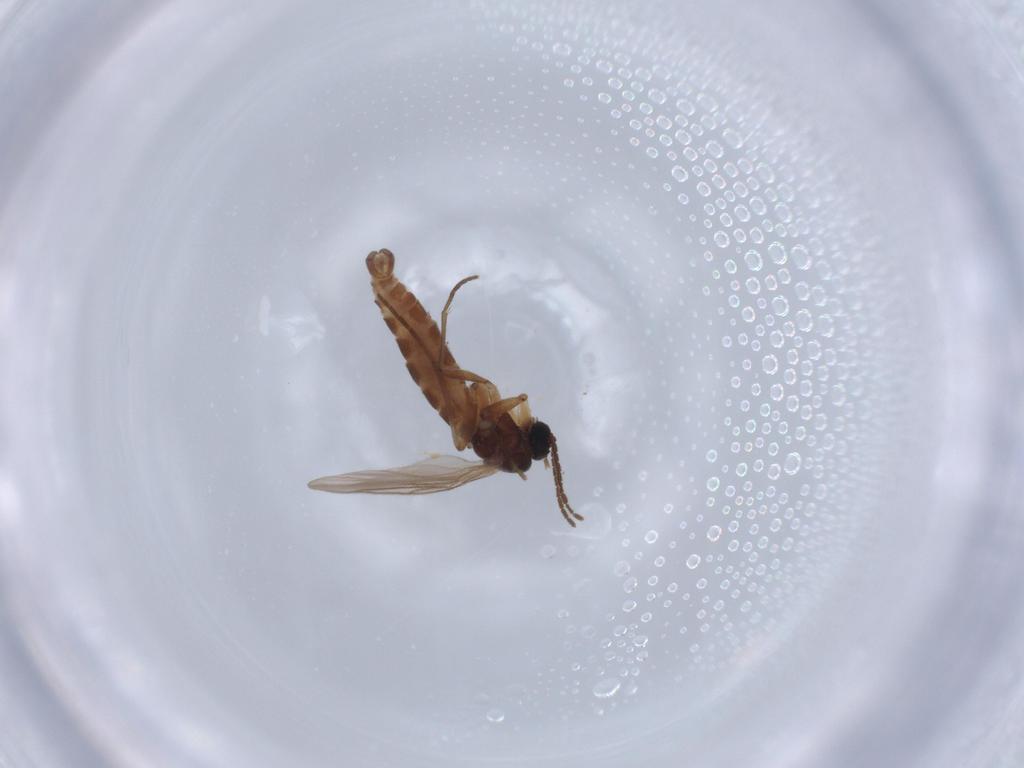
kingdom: Animalia
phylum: Arthropoda
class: Insecta
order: Diptera
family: Sciaridae
